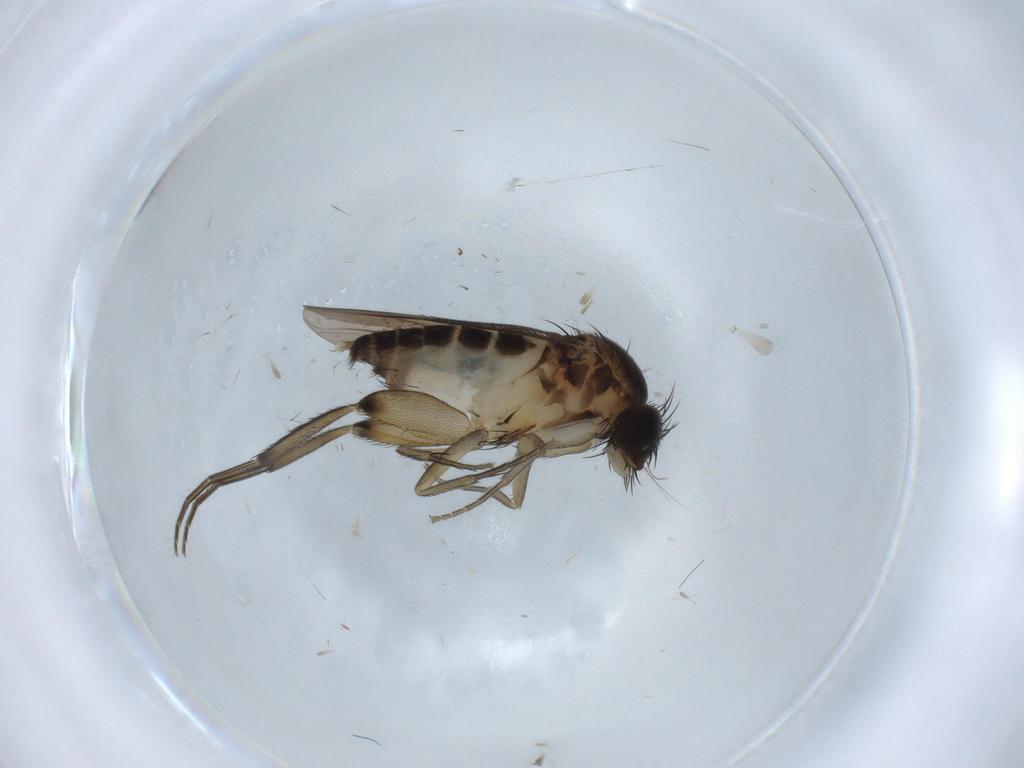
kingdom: Animalia
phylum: Arthropoda
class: Insecta
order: Diptera
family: Phoridae
